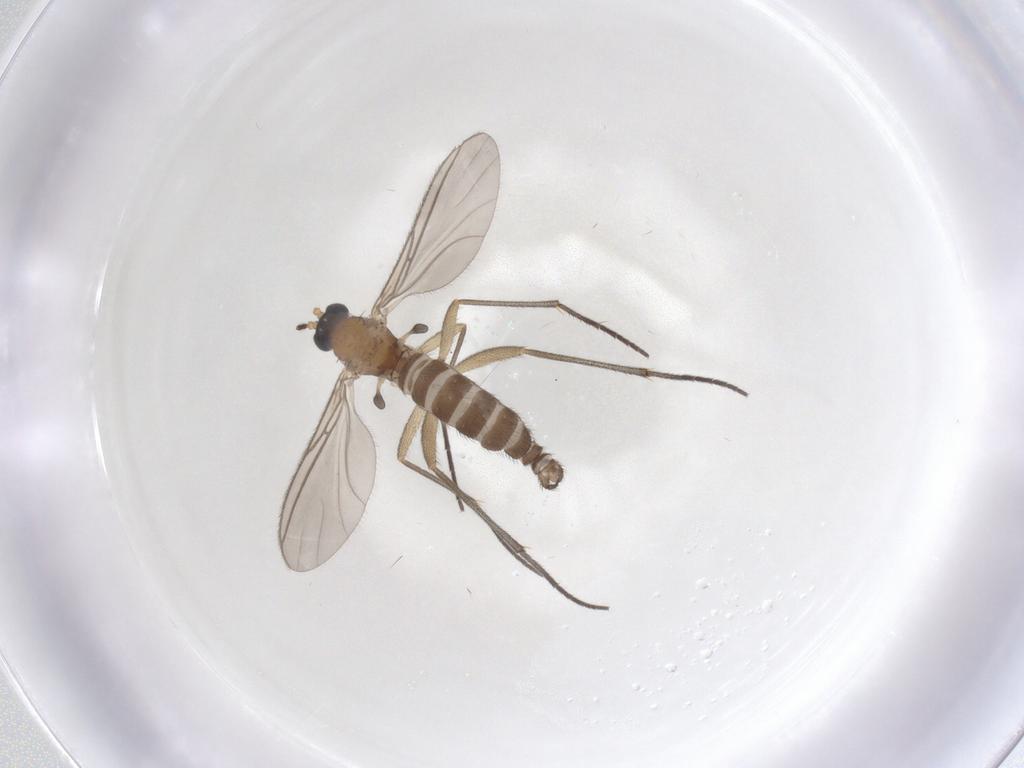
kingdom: Animalia
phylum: Arthropoda
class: Insecta
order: Diptera
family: Sciaridae
